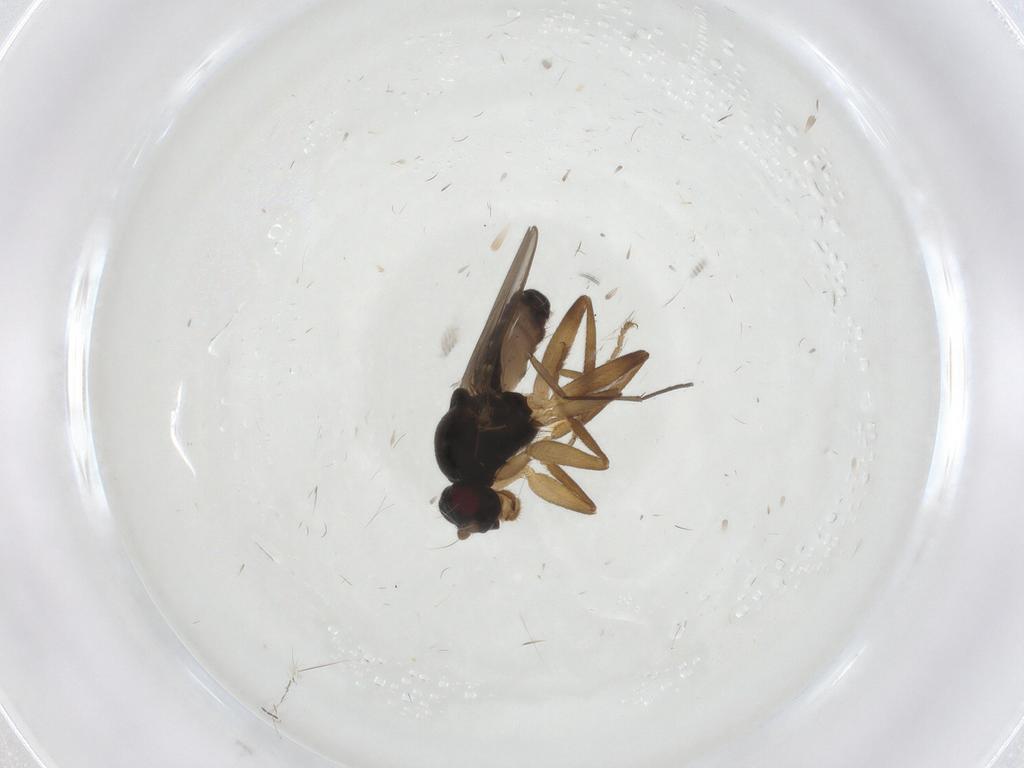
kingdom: Animalia
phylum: Arthropoda
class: Insecta
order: Diptera
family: Sphaeroceridae
